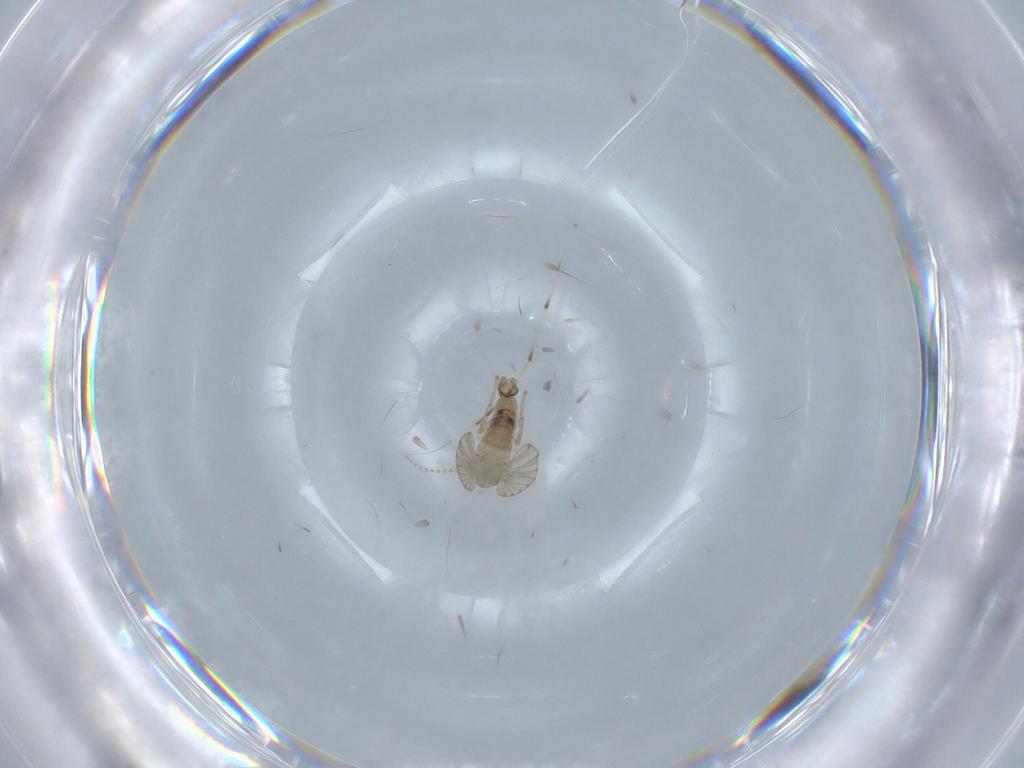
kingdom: Animalia
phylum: Arthropoda
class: Insecta
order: Diptera
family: Psychodidae
